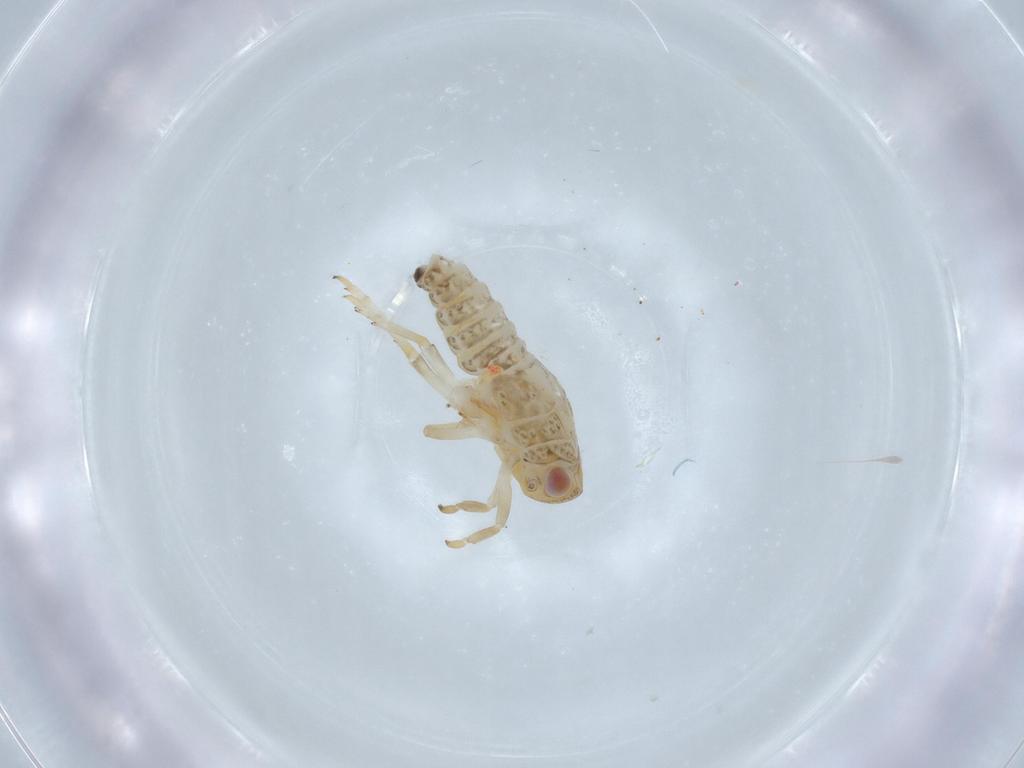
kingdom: Animalia
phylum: Arthropoda
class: Insecta
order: Hemiptera
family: Issidae
